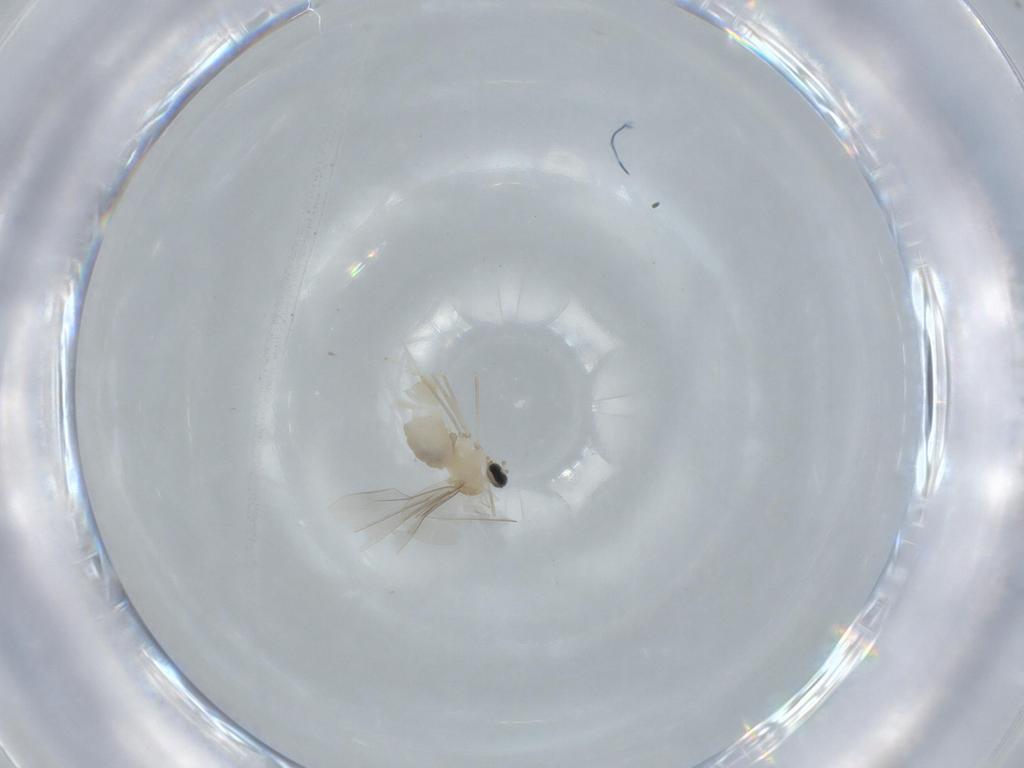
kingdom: Animalia
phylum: Arthropoda
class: Insecta
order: Diptera
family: Cecidomyiidae
